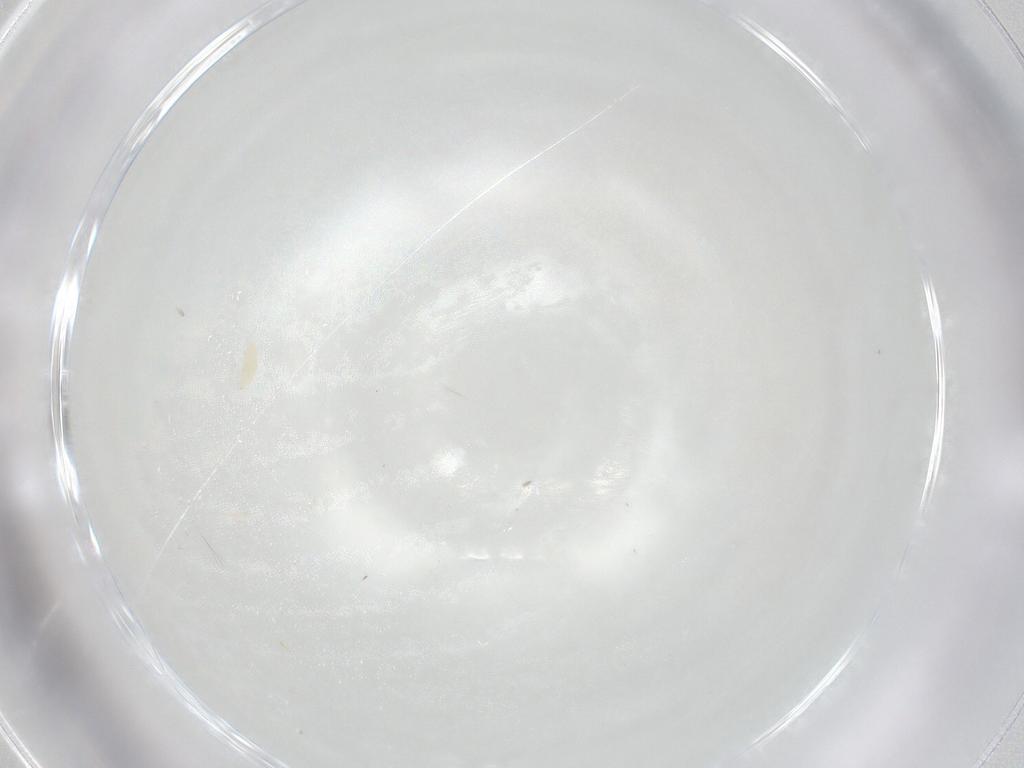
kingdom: Animalia
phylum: Arthropoda
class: Arachnida
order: Trombidiformes
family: Eupodidae
